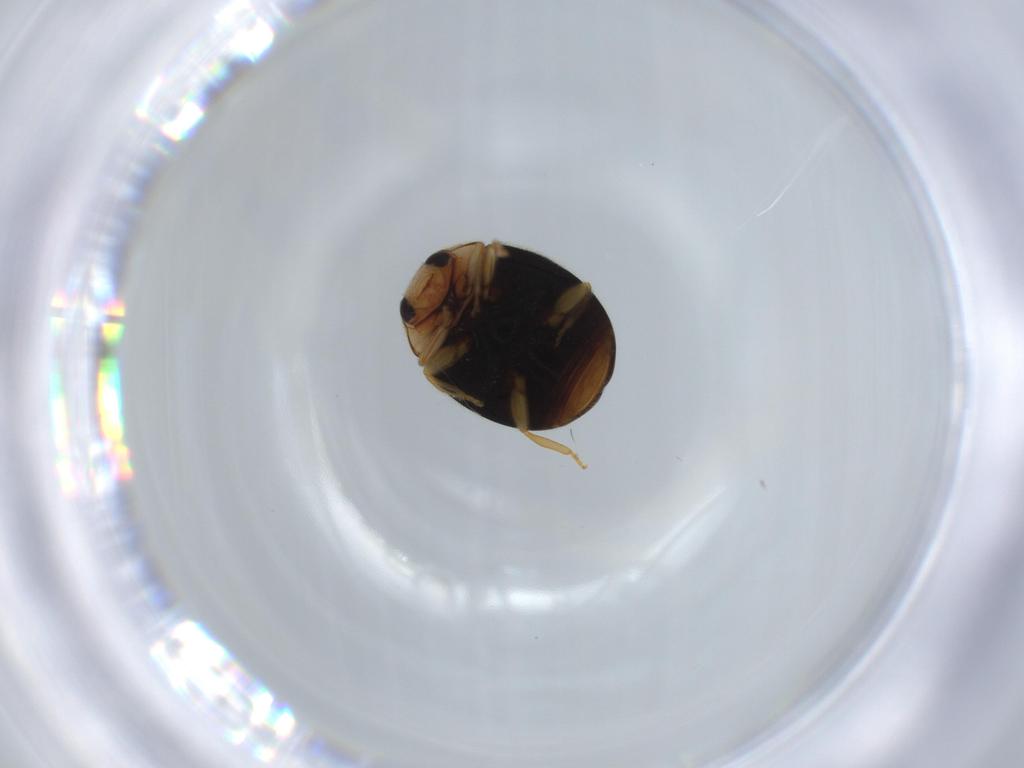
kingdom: Animalia
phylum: Arthropoda
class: Insecta
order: Coleoptera
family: Coccinellidae
